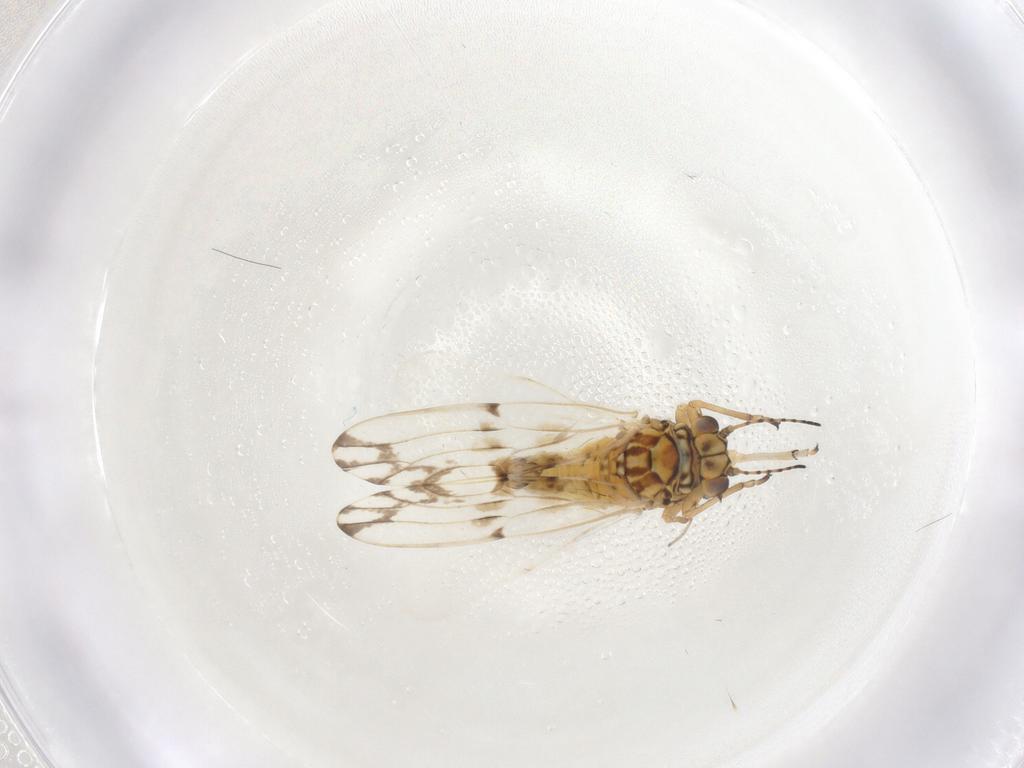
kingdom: Animalia
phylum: Arthropoda
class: Insecta
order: Hemiptera
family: Psylloidea_incertae_sedis
